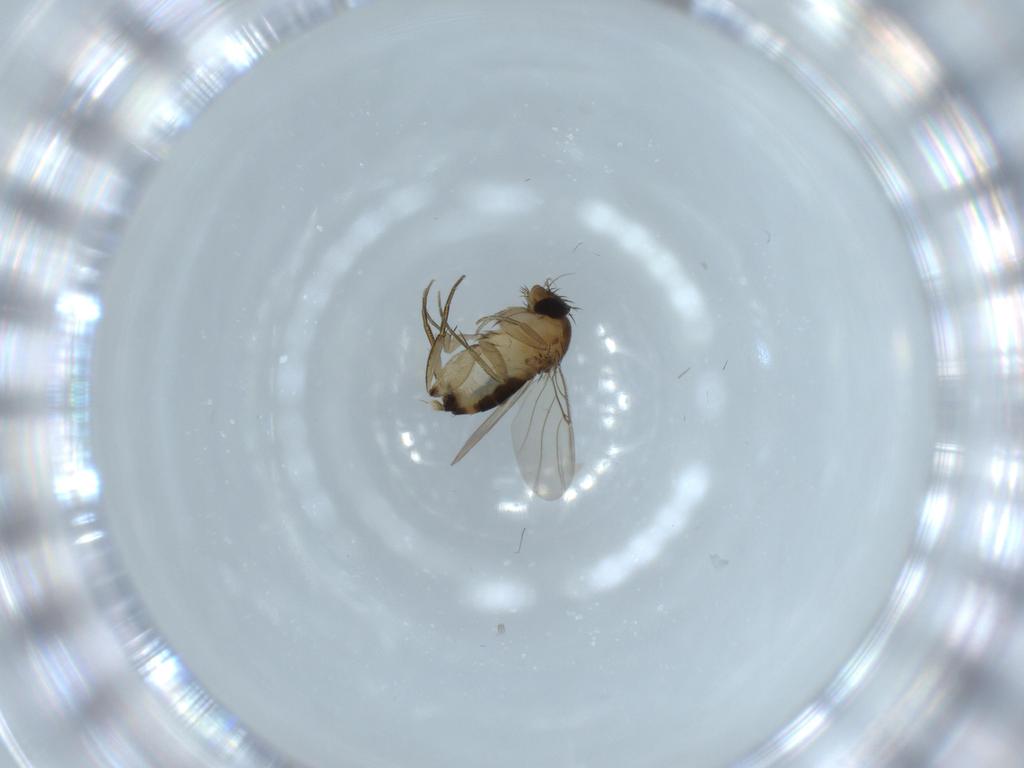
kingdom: Animalia
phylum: Arthropoda
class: Insecta
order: Diptera
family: Phoridae
